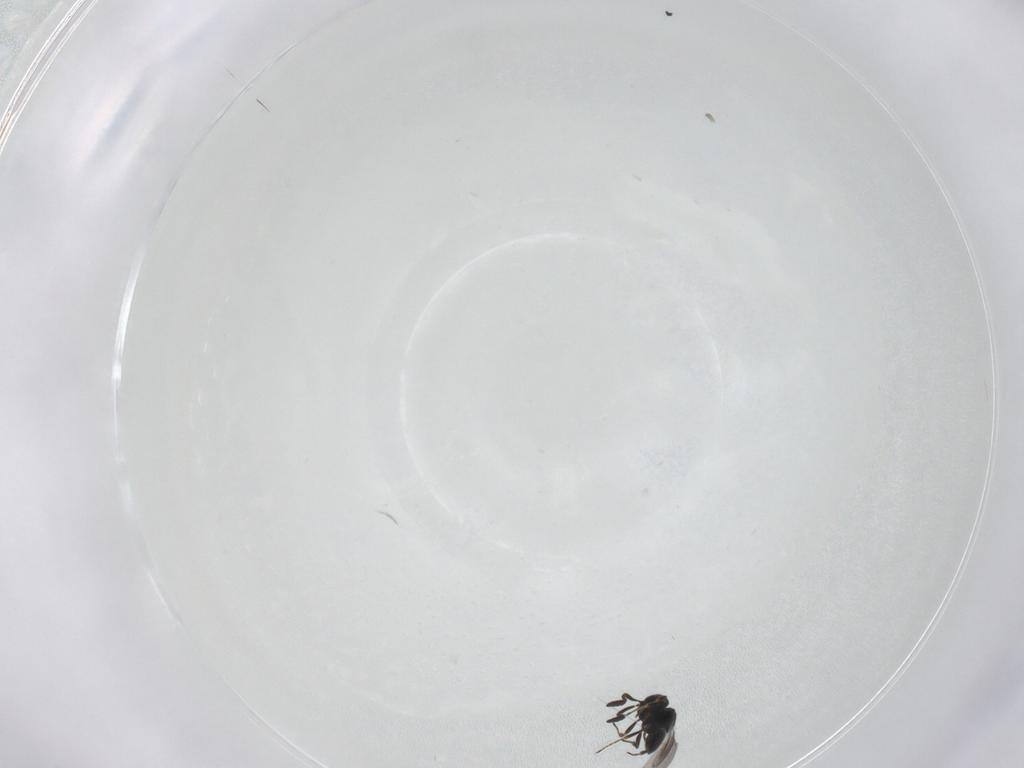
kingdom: Animalia
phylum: Arthropoda
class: Insecta
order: Hymenoptera
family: Scelionidae
